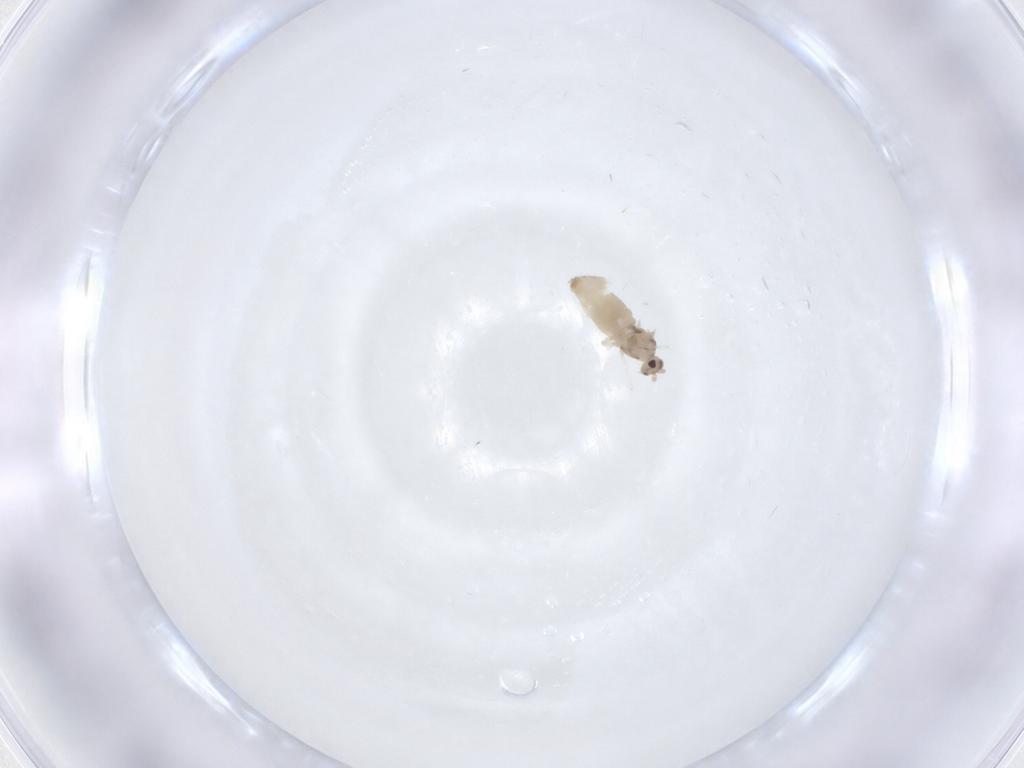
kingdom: Animalia
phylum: Arthropoda
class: Insecta
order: Diptera
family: Cecidomyiidae
